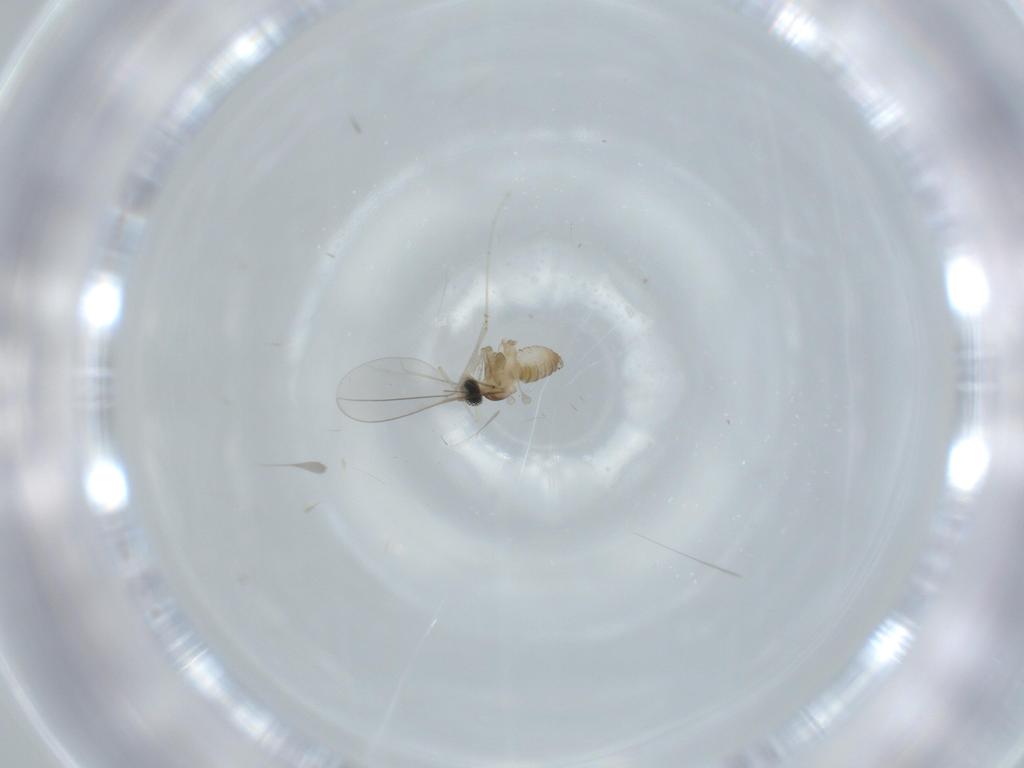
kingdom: Animalia
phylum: Arthropoda
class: Insecta
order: Diptera
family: Cecidomyiidae
